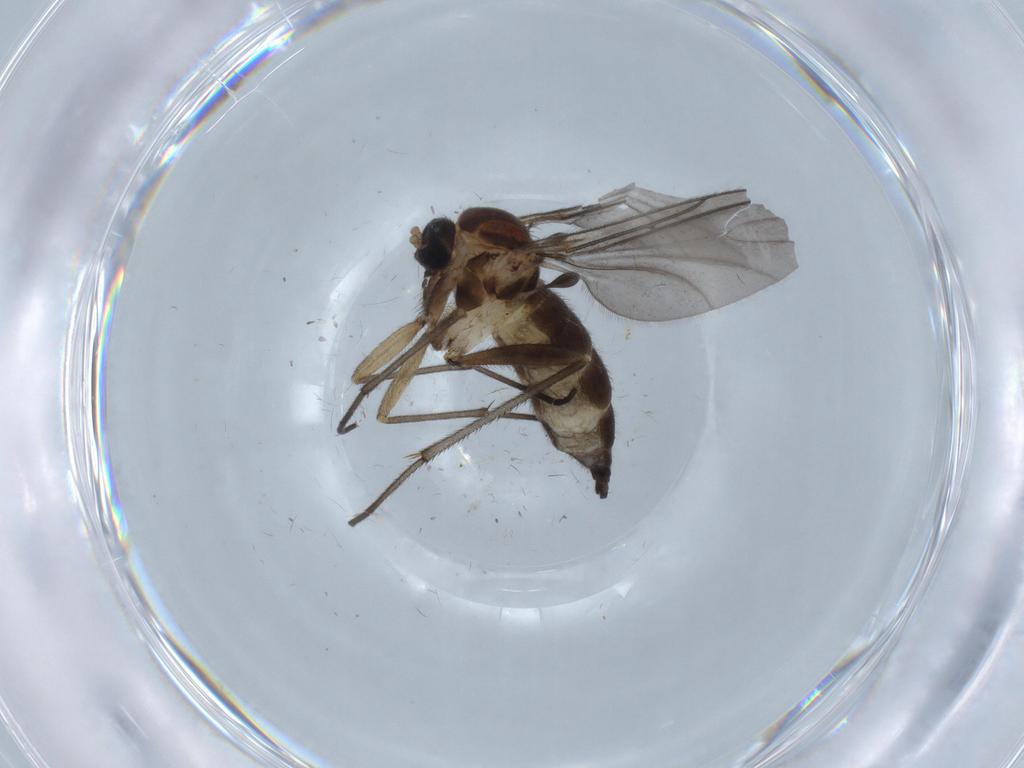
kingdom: Animalia
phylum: Arthropoda
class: Insecta
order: Diptera
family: Sciaridae
